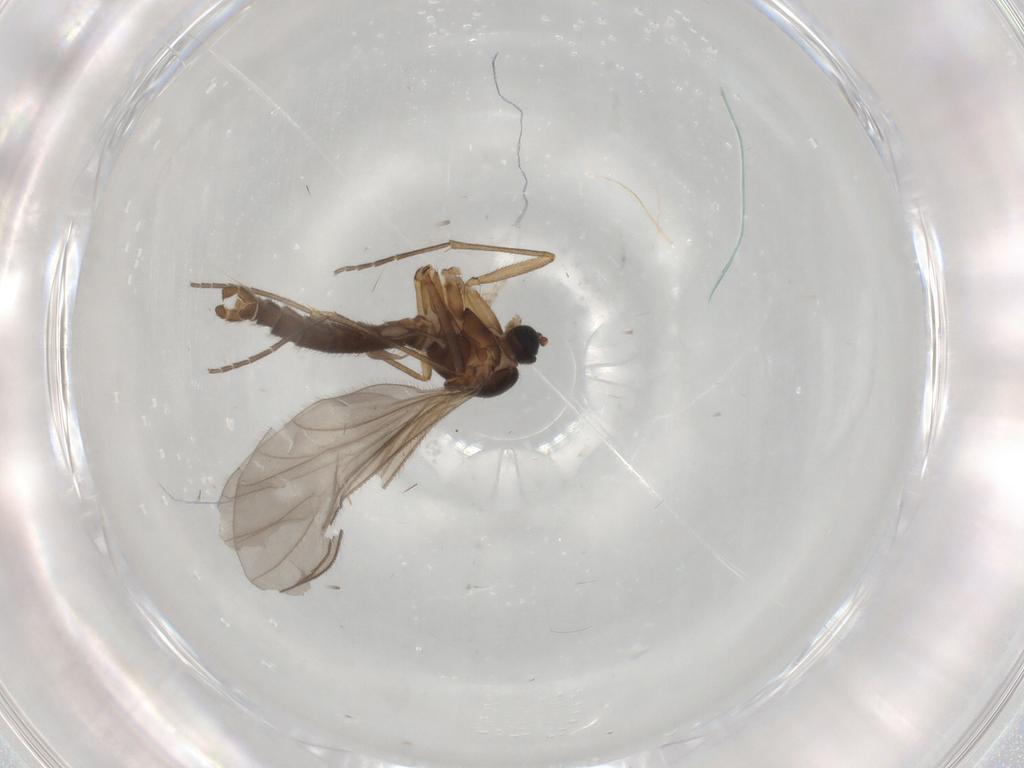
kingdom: Animalia
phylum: Arthropoda
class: Insecta
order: Diptera
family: Sciaridae
